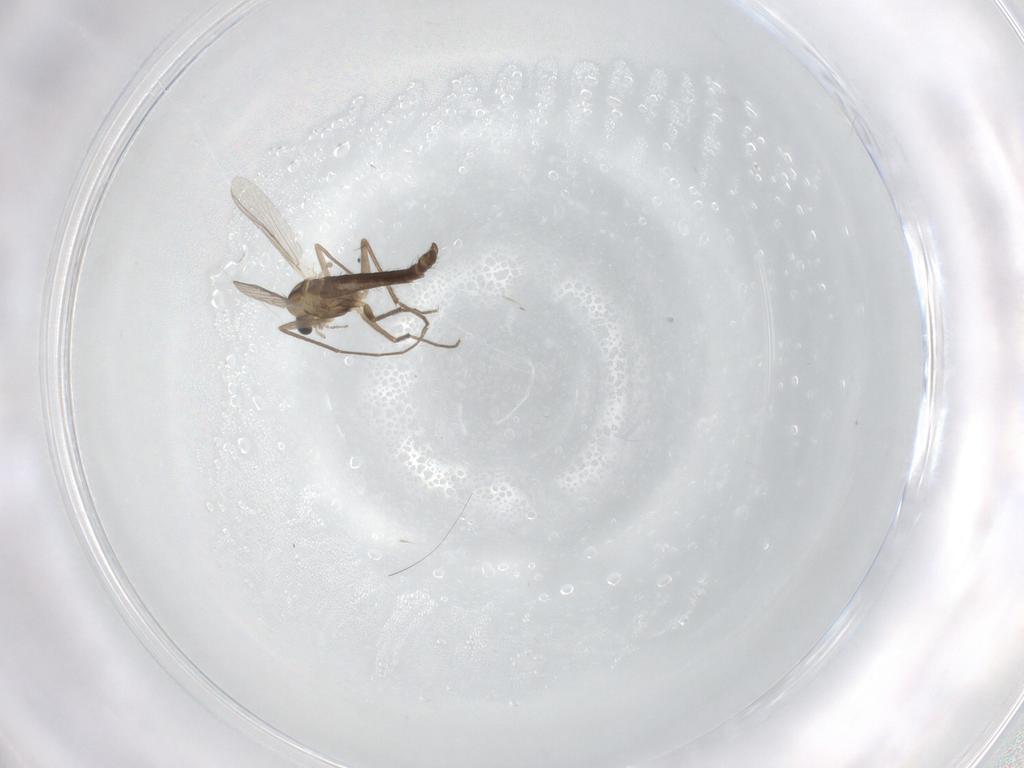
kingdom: Animalia
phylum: Arthropoda
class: Insecta
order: Diptera
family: Chironomidae
